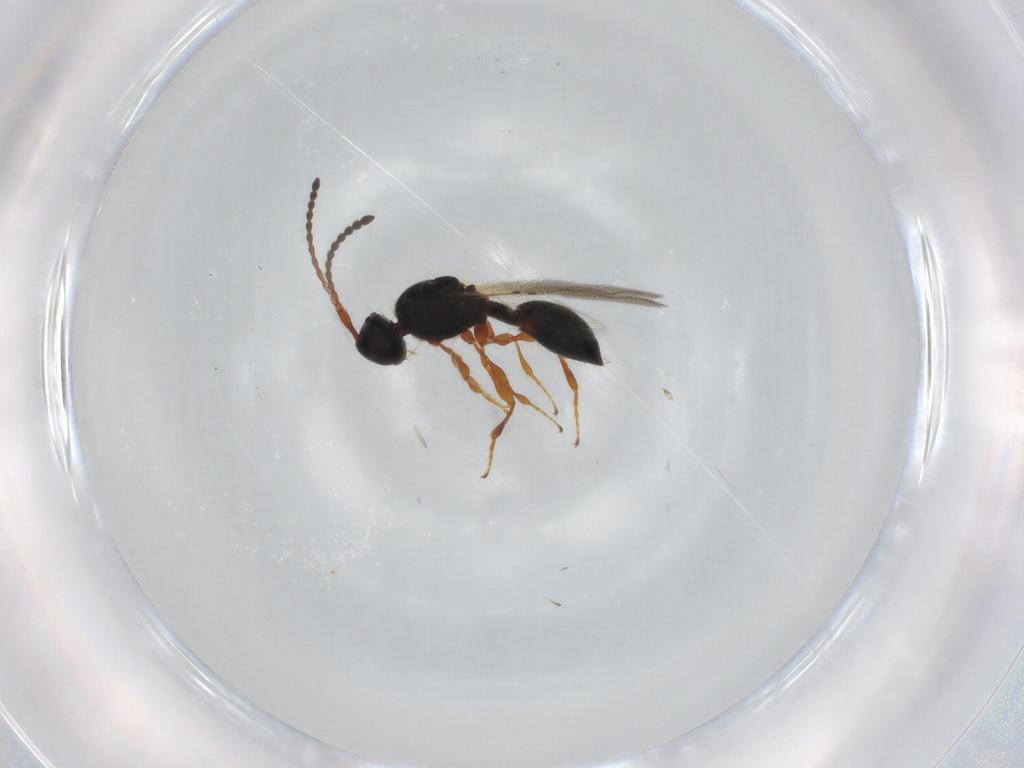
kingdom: Animalia
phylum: Arthropoda
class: Insecta
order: Hymenoptera
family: Diapriidae
